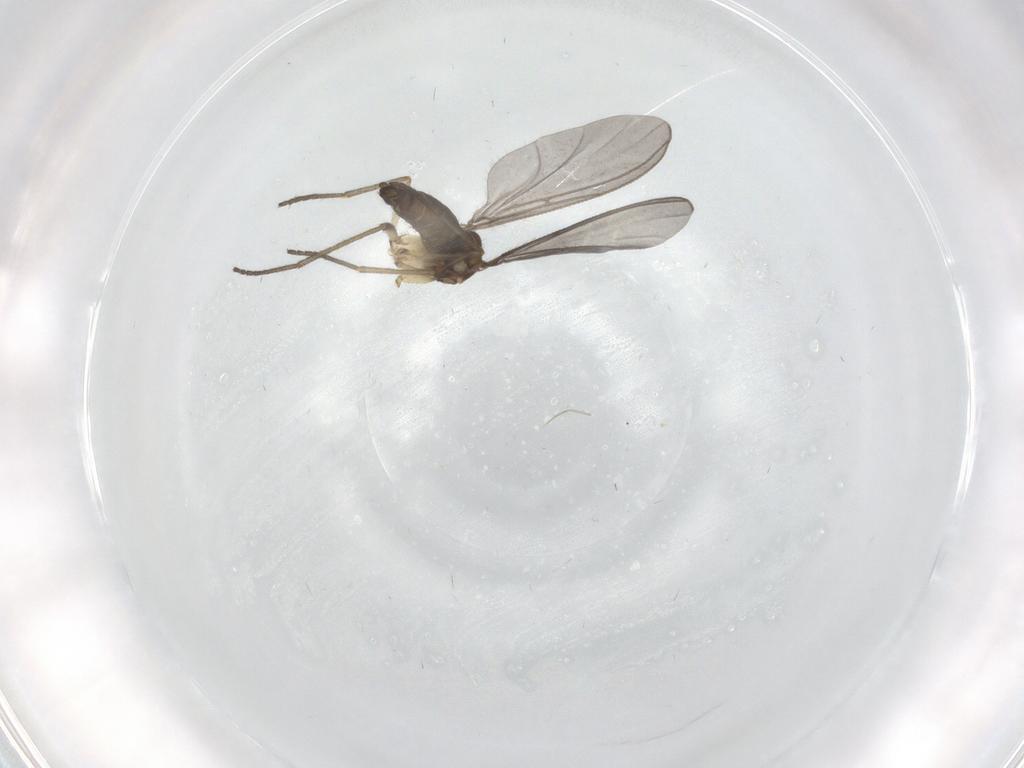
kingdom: Animalia
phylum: Arthropoda
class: Insecta
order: Diptera
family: Sciaridae
